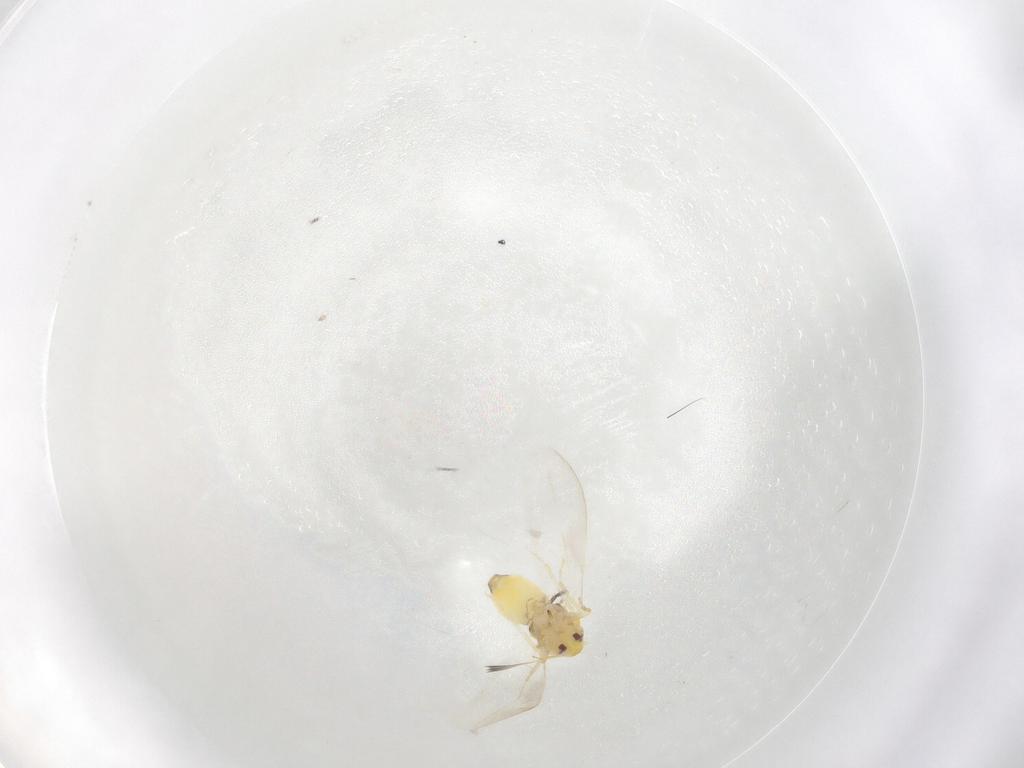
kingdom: Animalia
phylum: Arthropoda
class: Insecta
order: Hemiptera
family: Aleyrodidae
